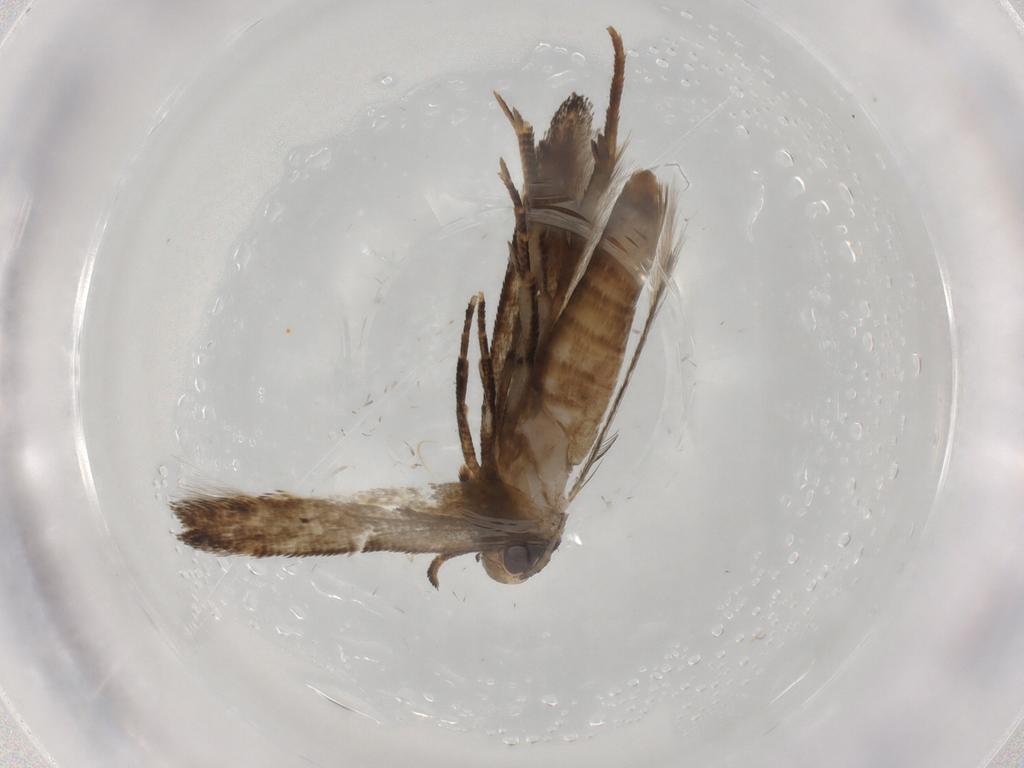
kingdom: Animalia
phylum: Arthropoda
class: Insecta
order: Lepidoptera
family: Cosmopterigidae
